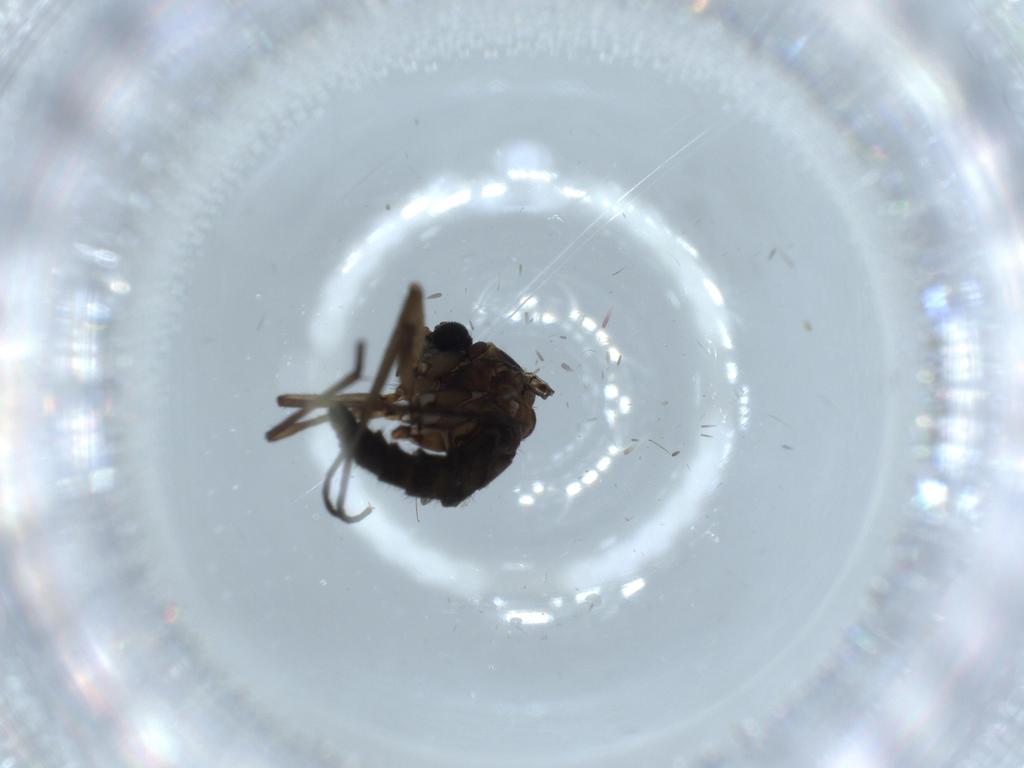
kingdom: Animalia
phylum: Arthropoda
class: Insecta
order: Diptera
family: Sciaridae
